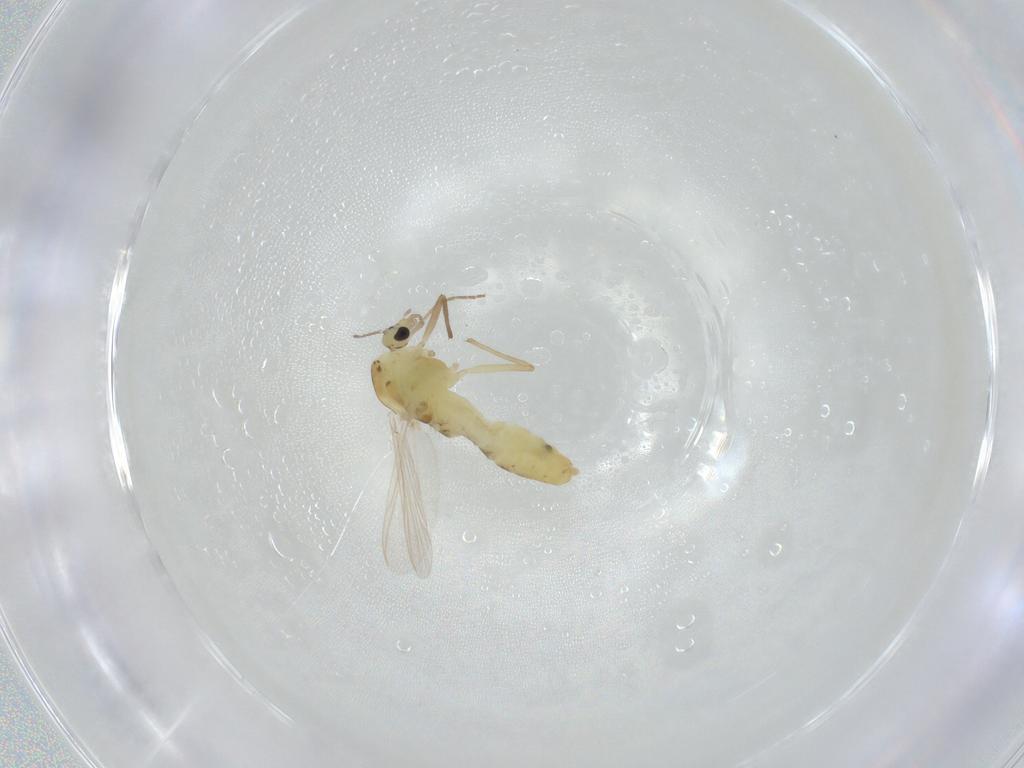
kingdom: Animalia
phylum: Arthropoda
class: Insecta
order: Diptera
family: Chironomidae
